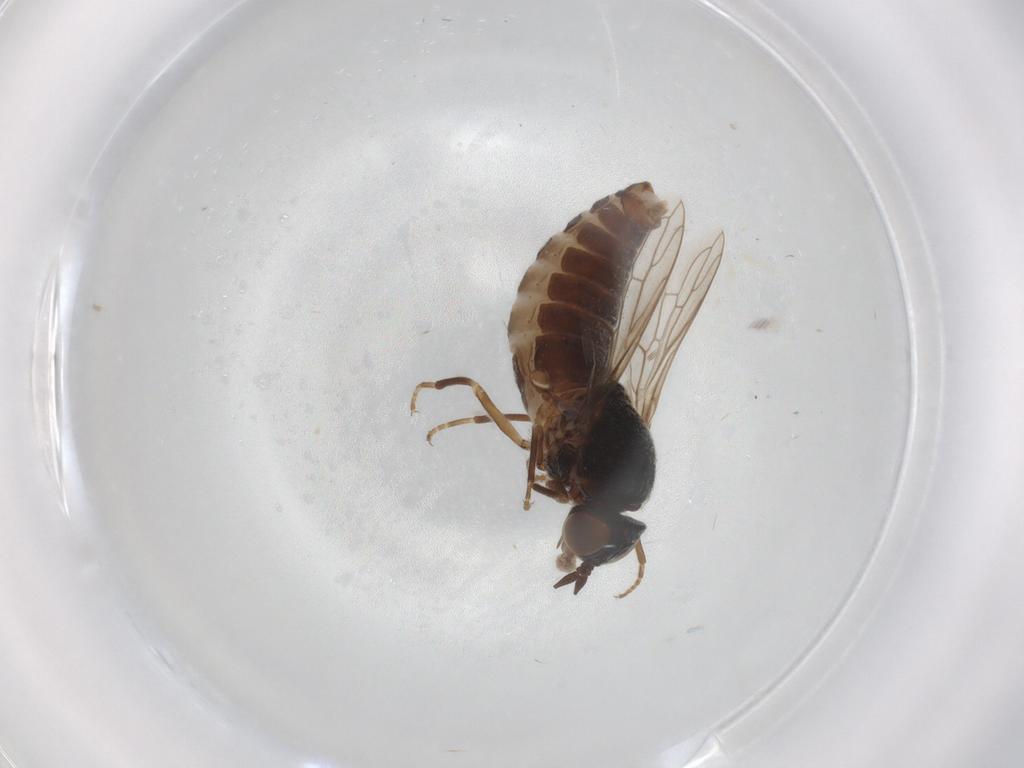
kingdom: Animalia
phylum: Arthropoda
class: Insecta
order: Diptera
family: Scenopinidae
